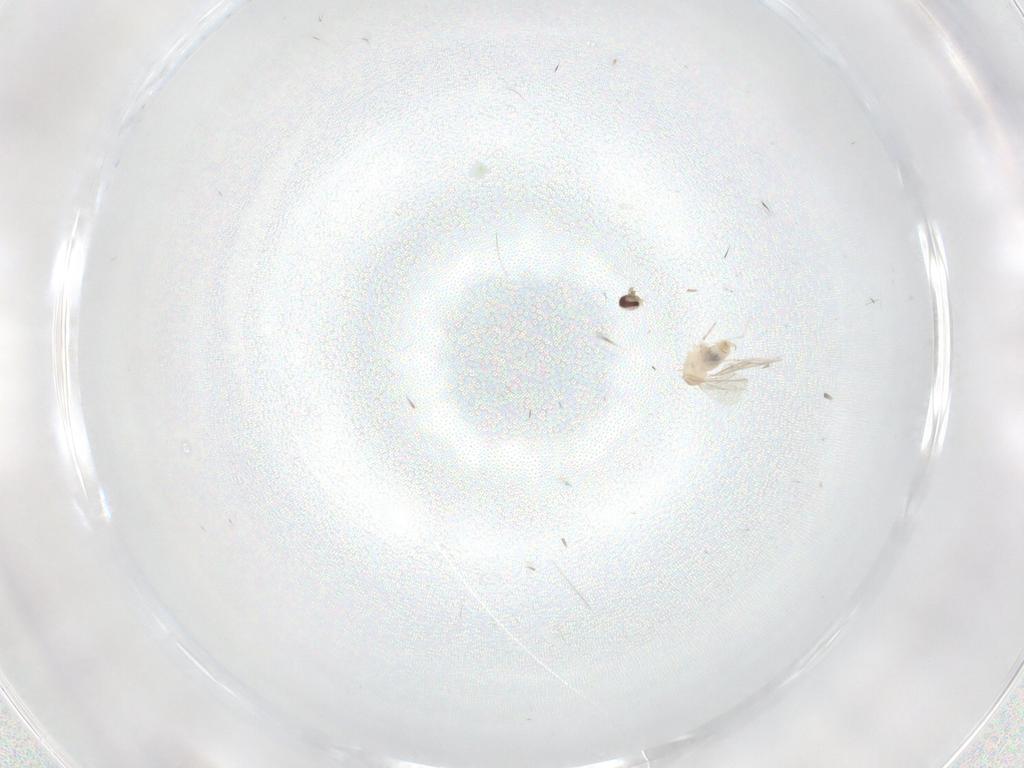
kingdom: Animalia
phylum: Arthropoda
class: Insecta
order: Diptera
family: Cecidomyiidae
